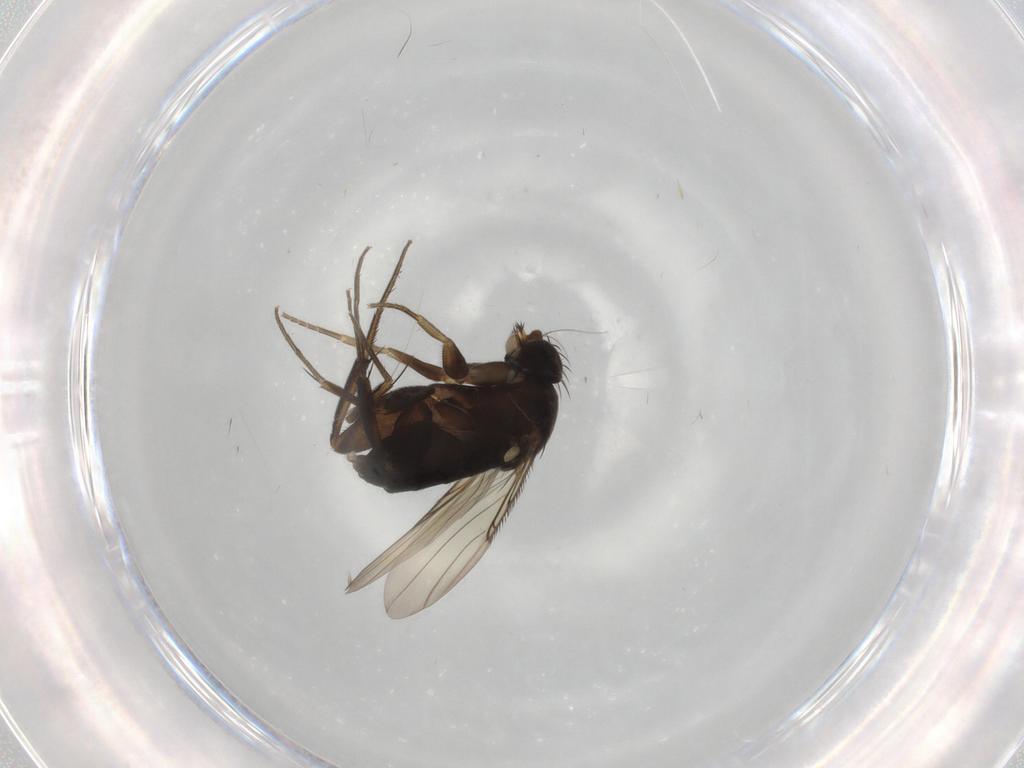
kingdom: Animalia
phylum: Arthropoda
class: Insecta
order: Diptera
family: Phoridae
